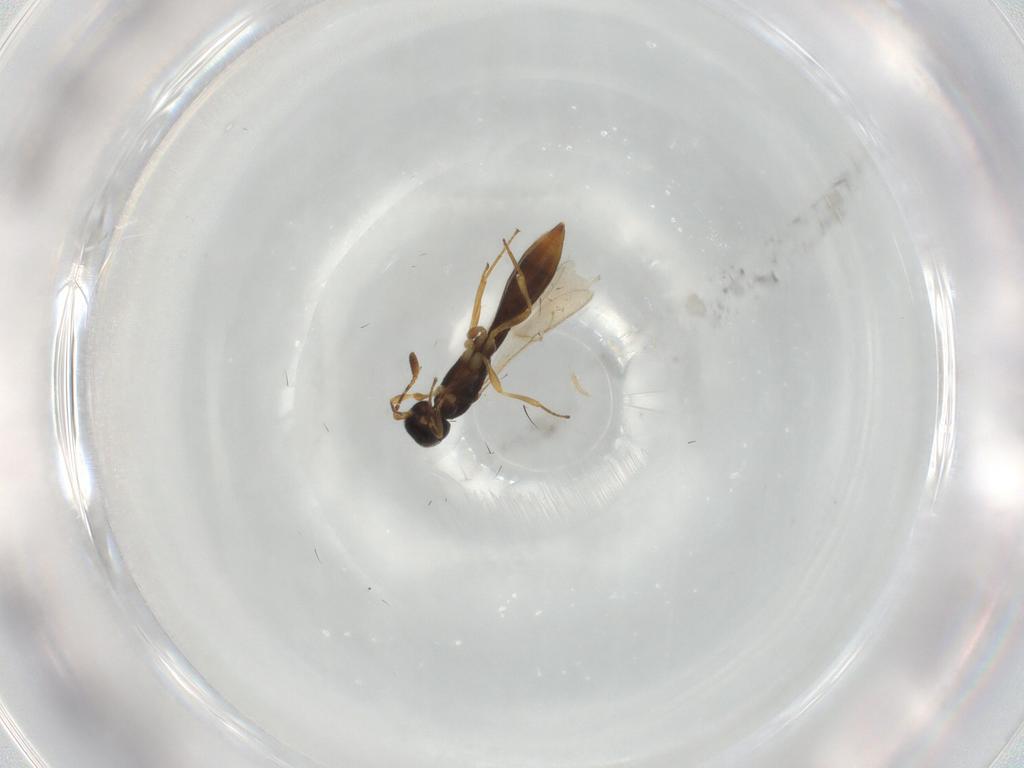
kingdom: Animalia
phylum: Arthropoda
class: Insecta
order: Hymenoptera
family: Scelionidae
